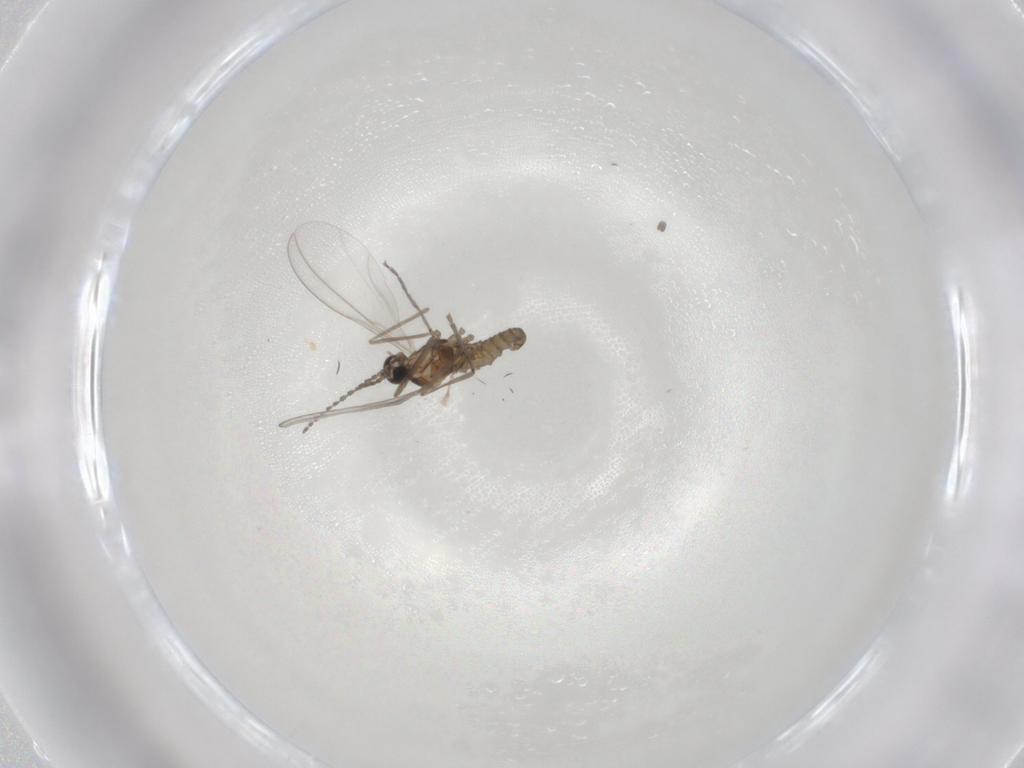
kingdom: Animalia
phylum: Arthropoda
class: Insecta
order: Diptera
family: Cecidomyiidae
